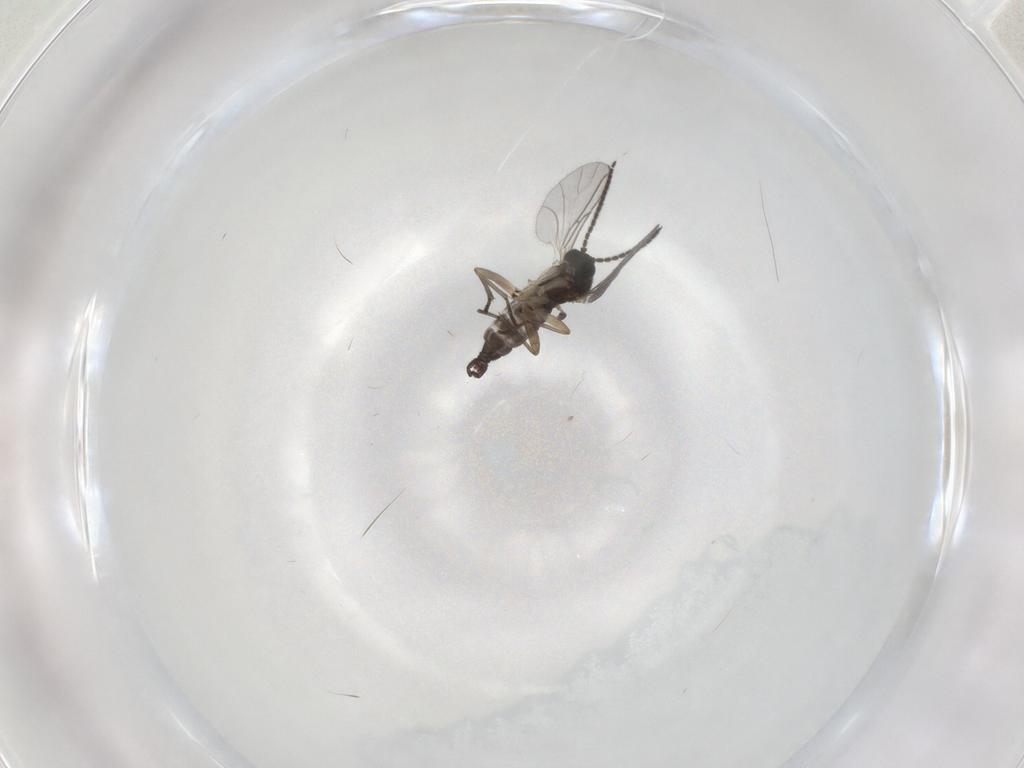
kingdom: Animalia
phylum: Arthropoda
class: Insecta
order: Diptera
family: Sciaridae
